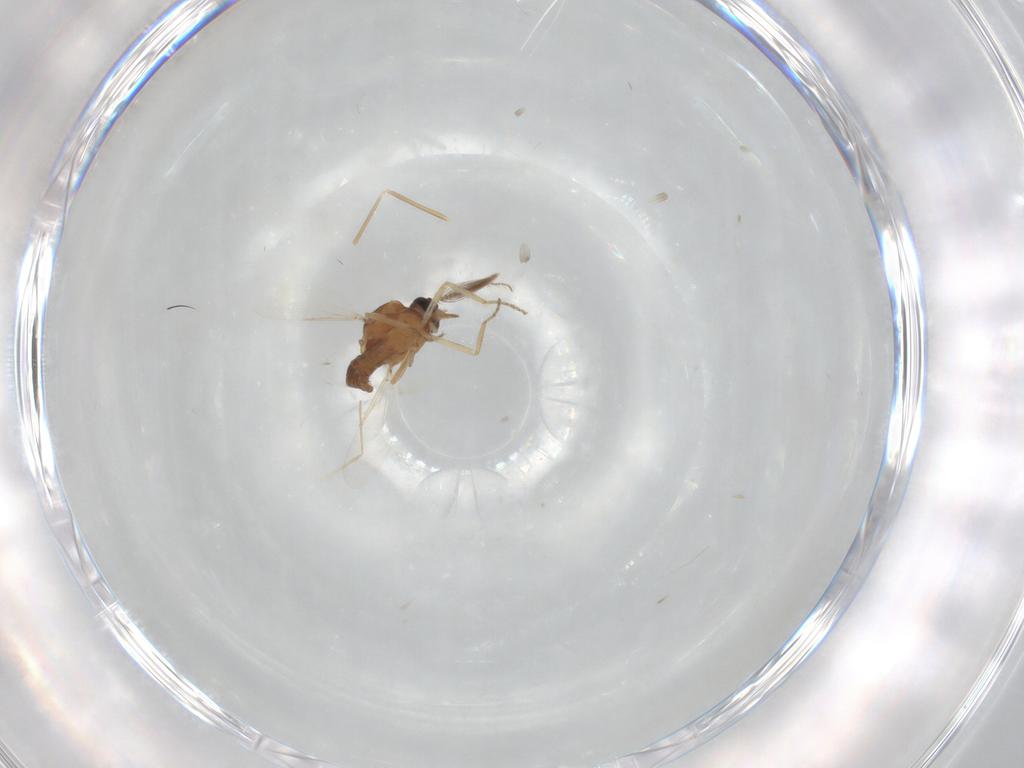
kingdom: Animalia
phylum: Arthropoda
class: Insecta
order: Diptera
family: Ceratopogonidae
